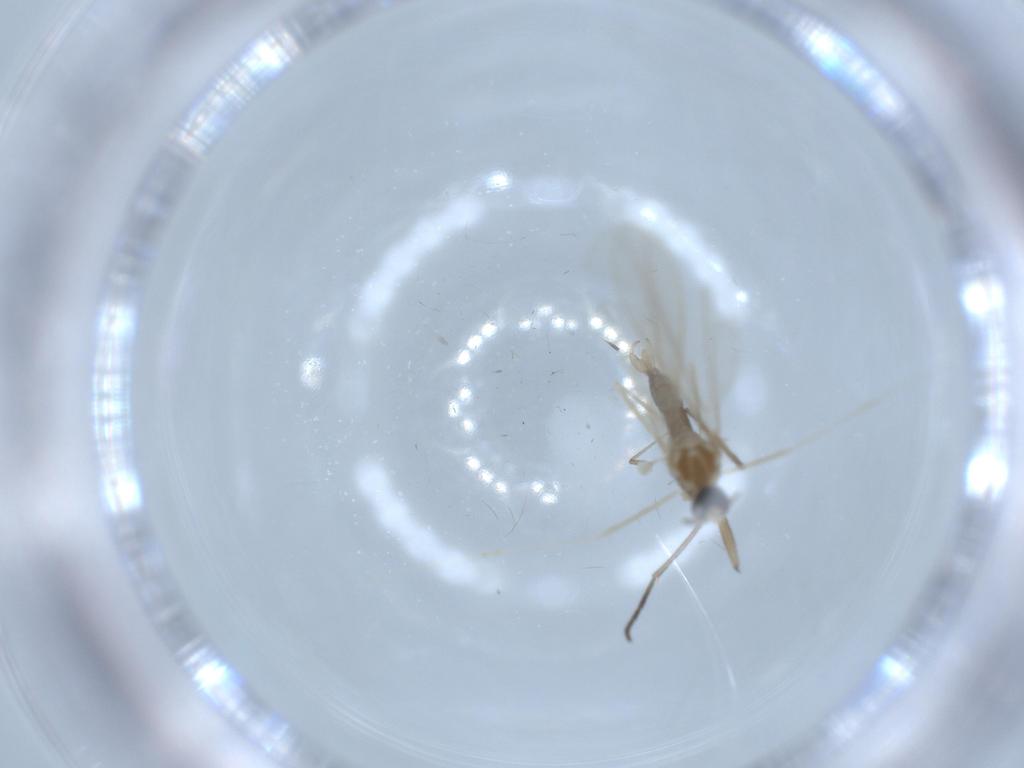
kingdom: Animalia
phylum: Arthropoda
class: Insecta
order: Diptera
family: Cecidomyiidae
